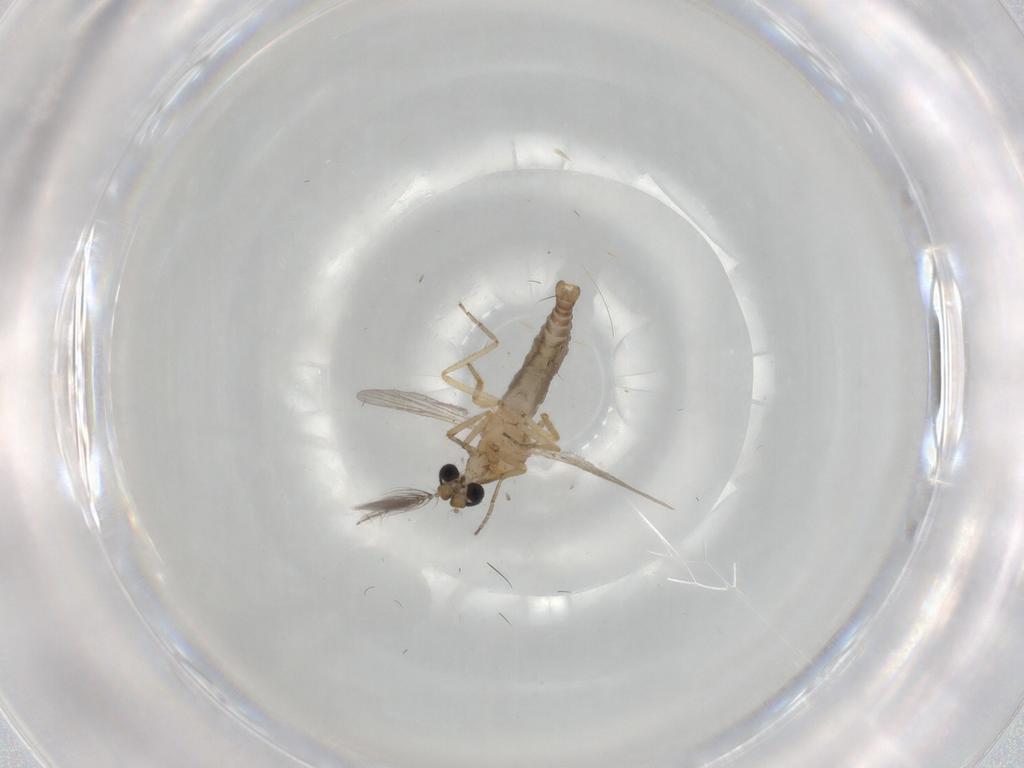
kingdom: Animalia
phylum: Arthropoda
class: Insecta
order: Diptera
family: Ceratopogonidae
